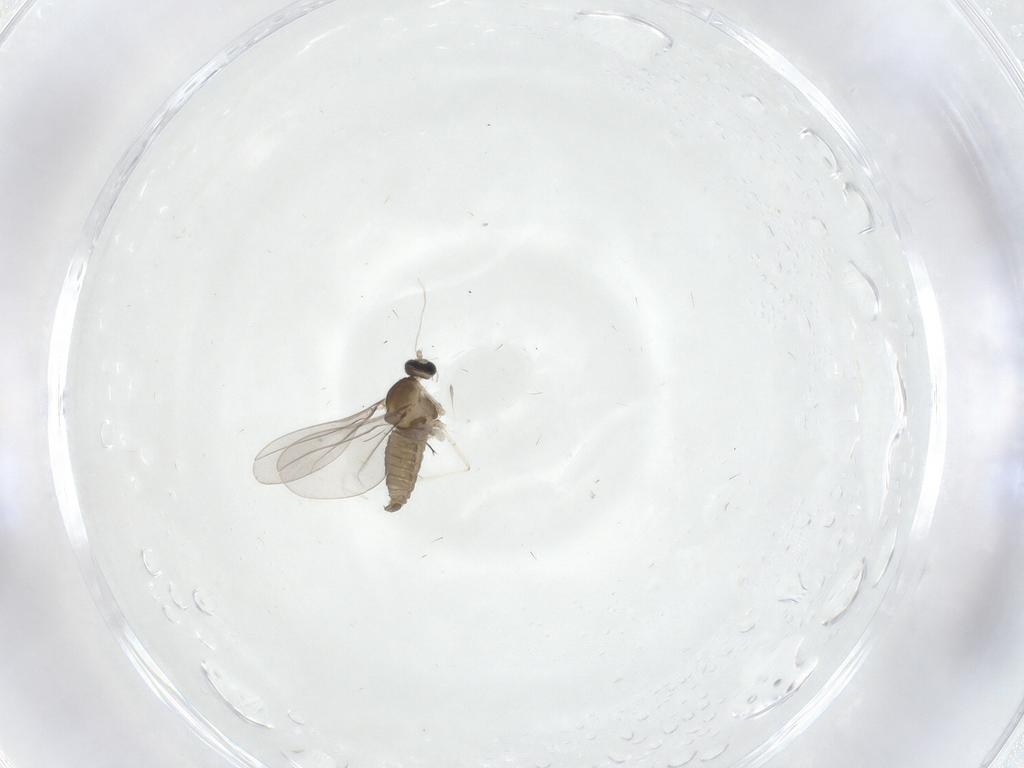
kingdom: Animalia
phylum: Arthropoda
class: Insecta
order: Diptera
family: Cecidomyiidae
